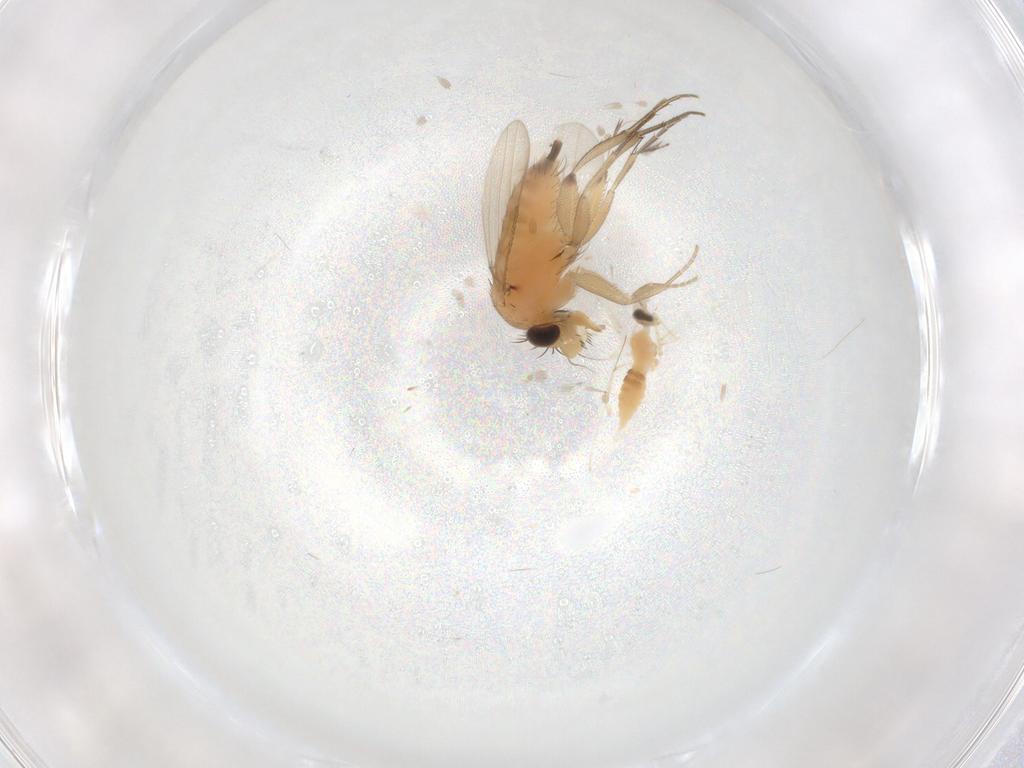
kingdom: Animalia
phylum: Arthropoda
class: Insecta
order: Diptera
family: Cecidomyiidae
